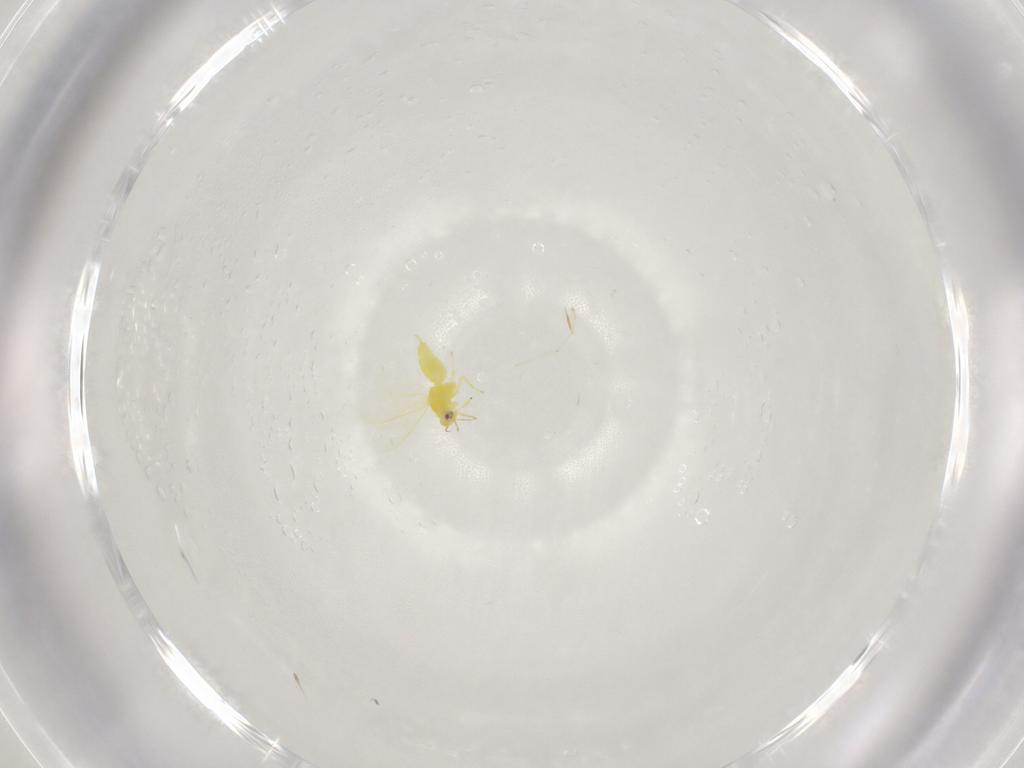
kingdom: Animalia
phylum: Arthropoda
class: Insecta
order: Hemiptera
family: Aleyrodidae
